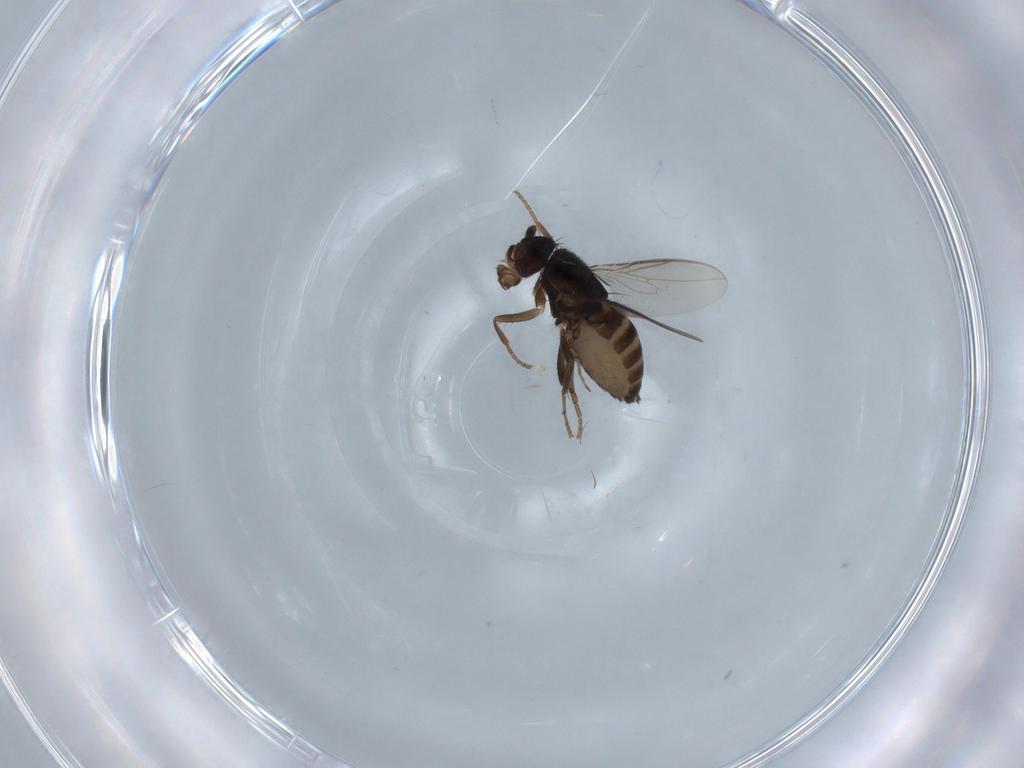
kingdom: Animalia
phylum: Arthropoda
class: Insecta
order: Diptera
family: Sphaeroceridae
